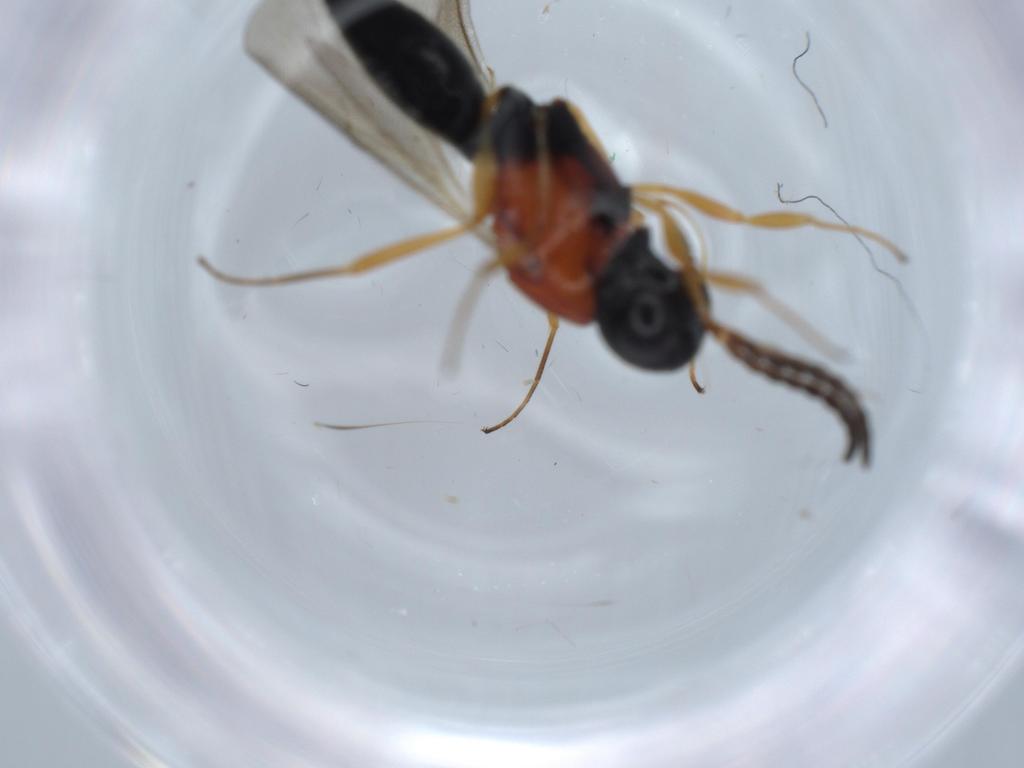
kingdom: Animalia
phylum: Arthropoda
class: Insecta
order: Hymenoptera
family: Scelionidae
